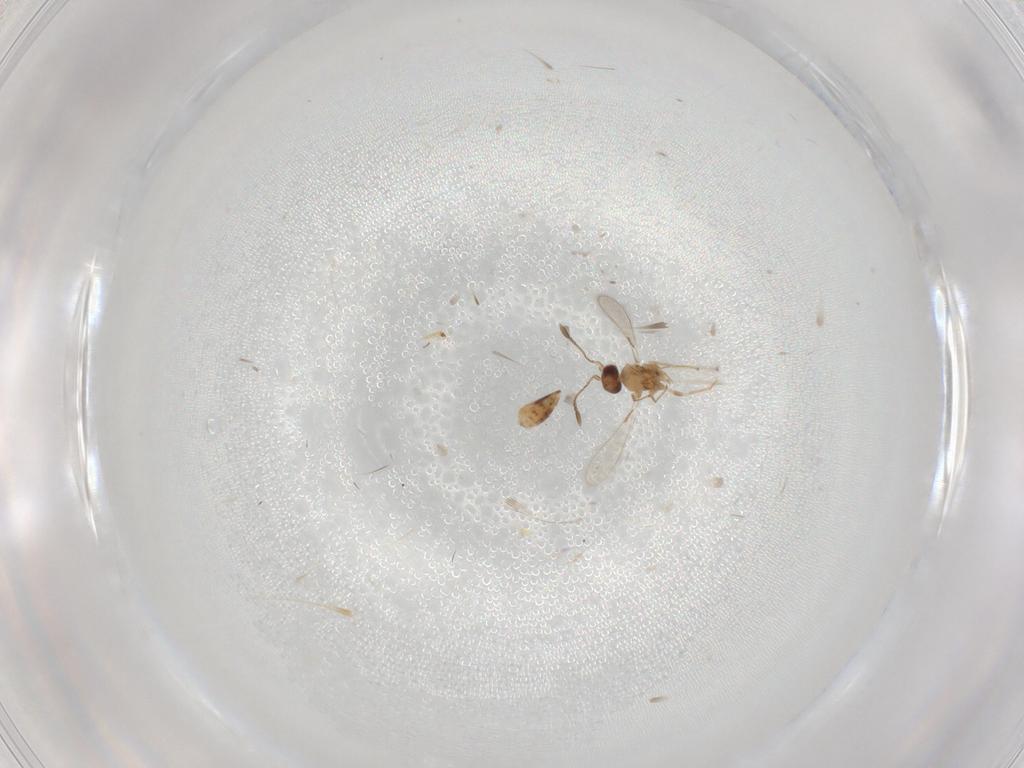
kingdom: Animalia
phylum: Arthropoda
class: Insecta
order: Hymenoptera
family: Mymaridae
